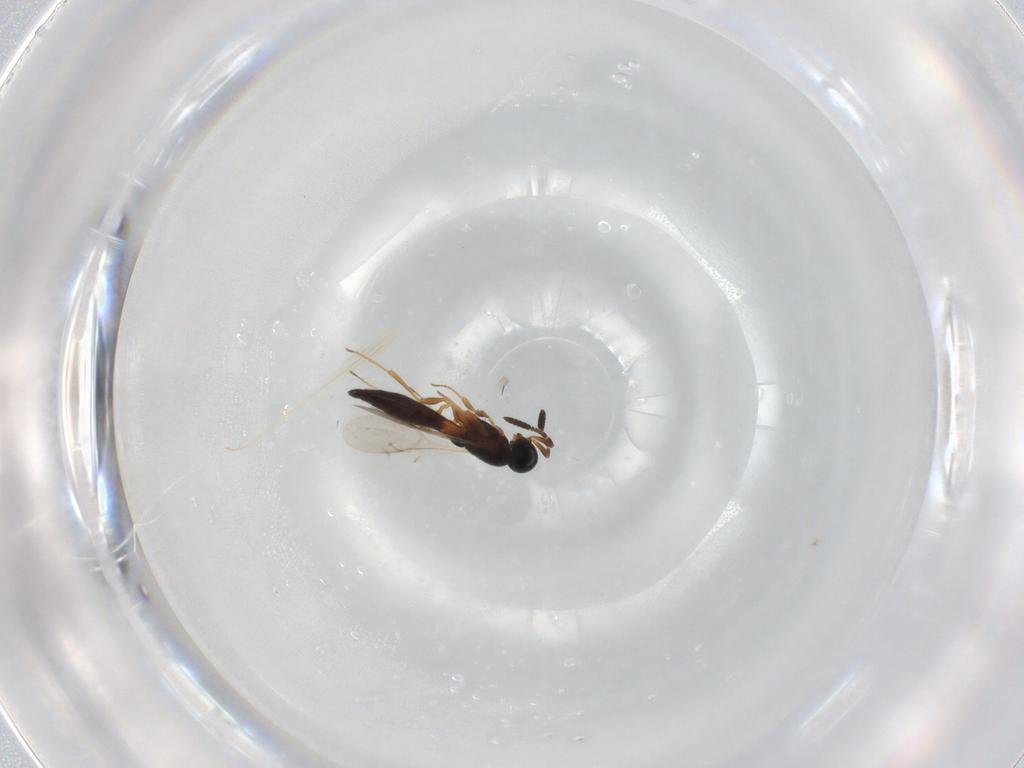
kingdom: Animalia
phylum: Arthropoda
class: Insecta
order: Hymenoptera
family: Scelionidae
